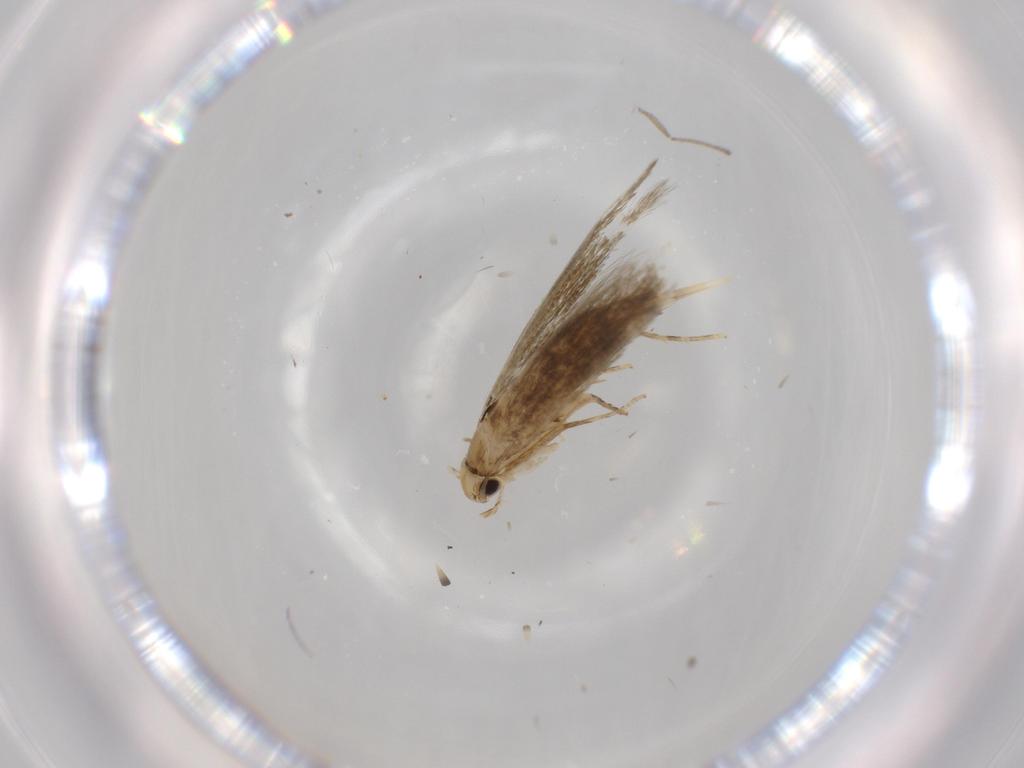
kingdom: Animalia
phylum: Arthropoda
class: Insecta
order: Lepidoptera
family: Tineidae
